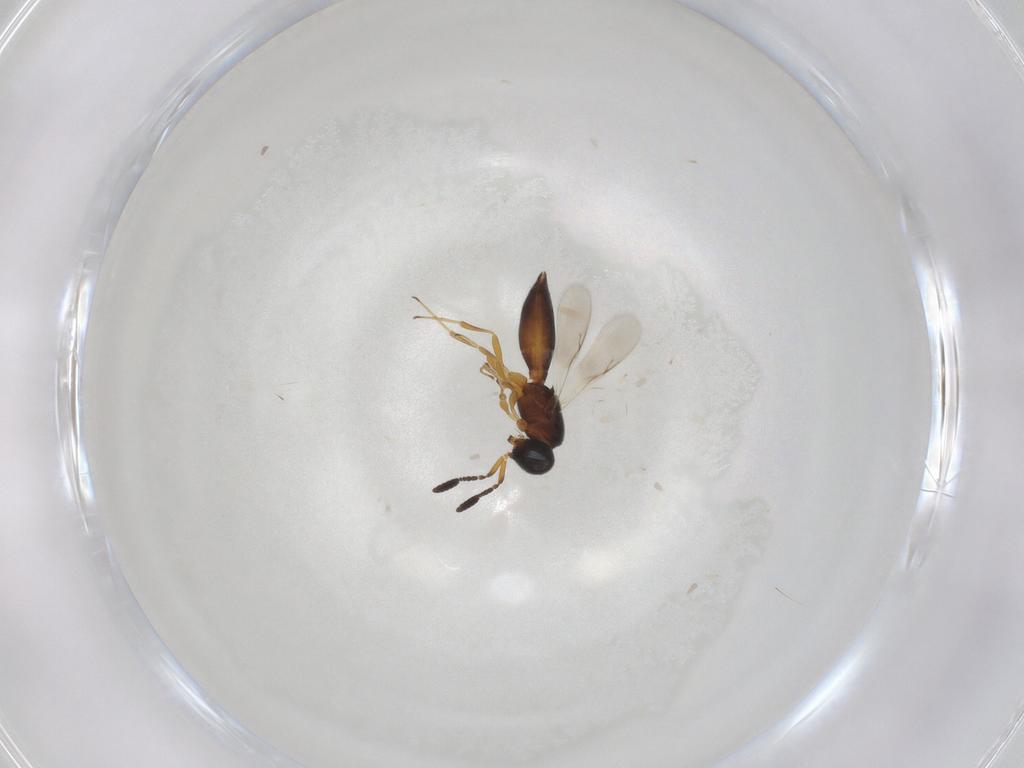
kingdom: Animalia
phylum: Arthropoda
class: Insecta
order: Hymenoptera
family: Scelionidae
